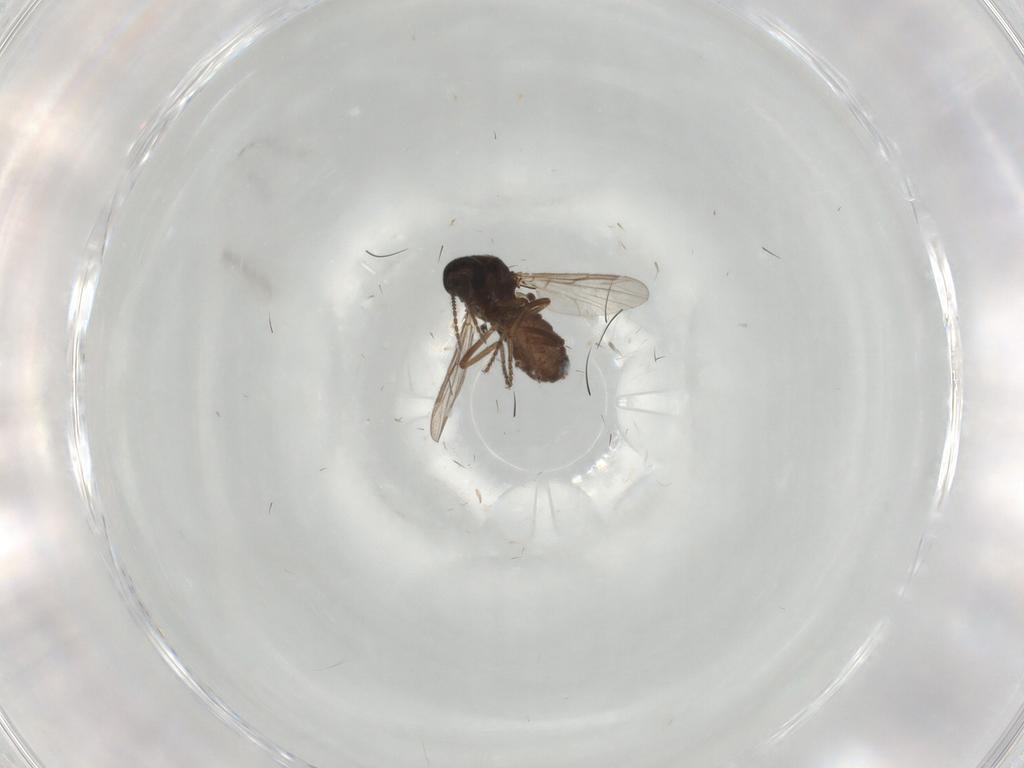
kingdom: Animalia
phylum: Arthropoda
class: Insecta
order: Diptera
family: Ceratopogonidae
